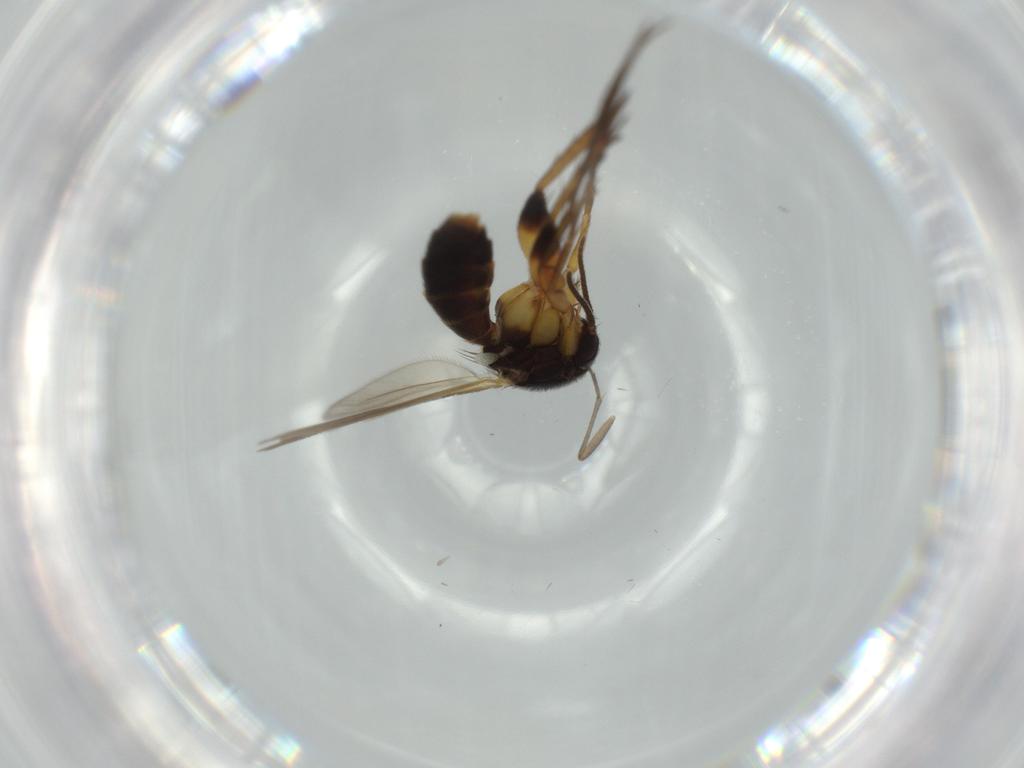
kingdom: Animalia
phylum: Arthropoda
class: Insecta
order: Diptera
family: Mycetophilidae
